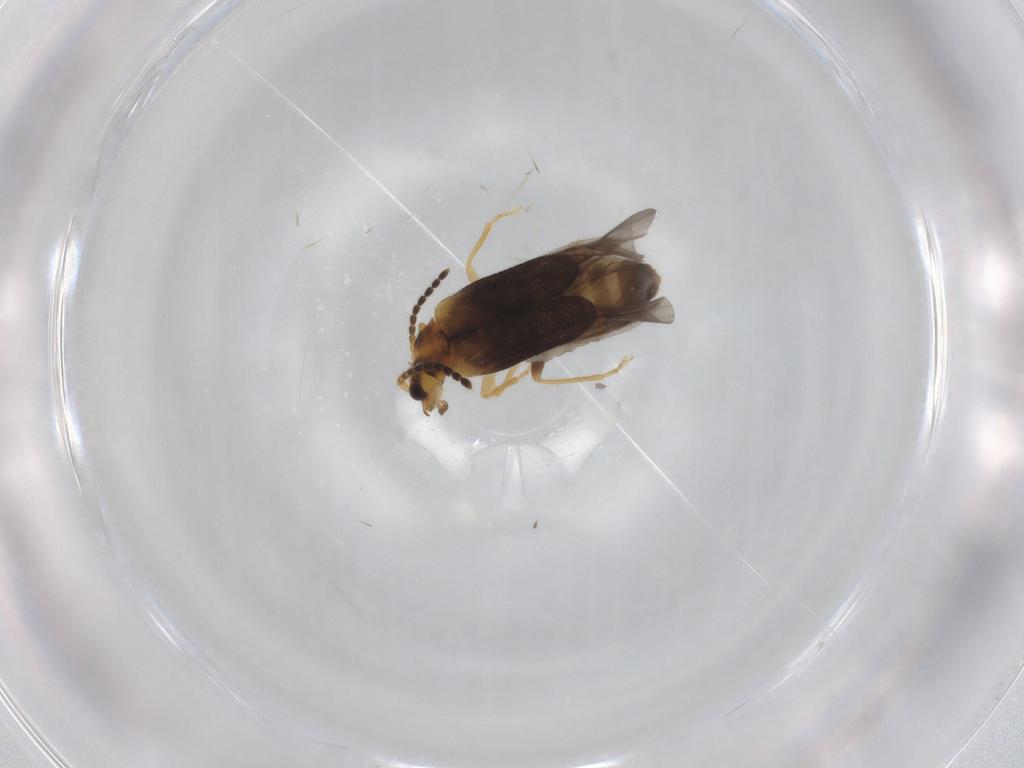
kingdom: Animalia
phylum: Arthropoda
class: Insecta
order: Coleoptera
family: Cantharidae
